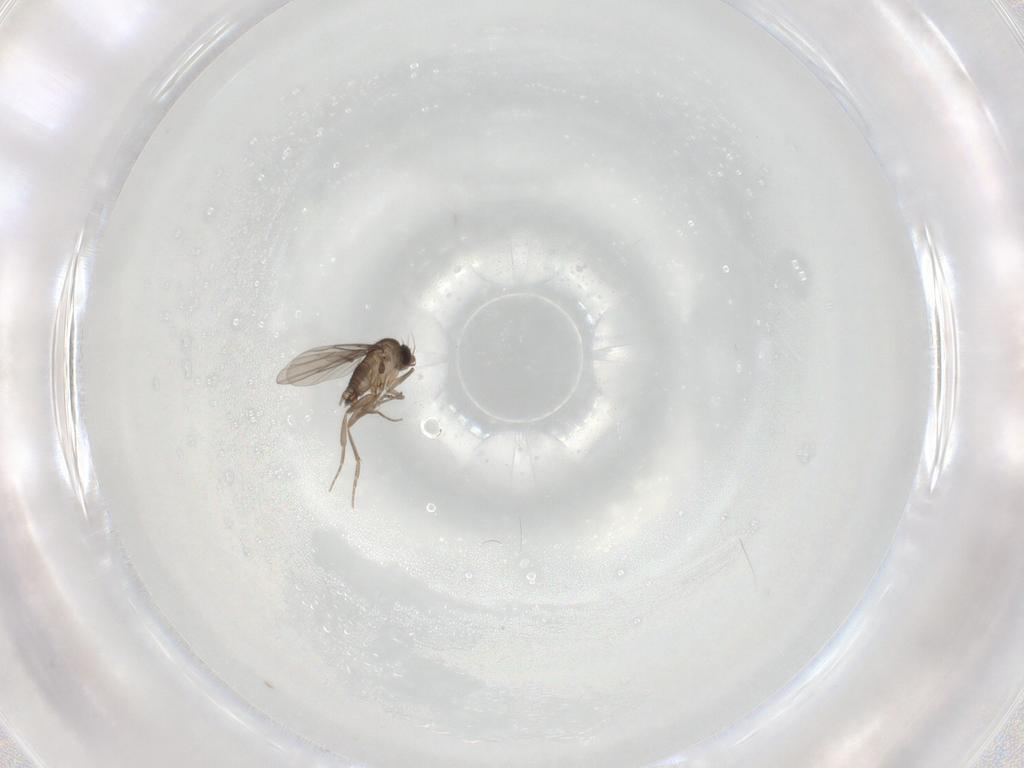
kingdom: Animalia
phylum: Arthropoda
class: Insecta
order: Diptera
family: Phoridae
